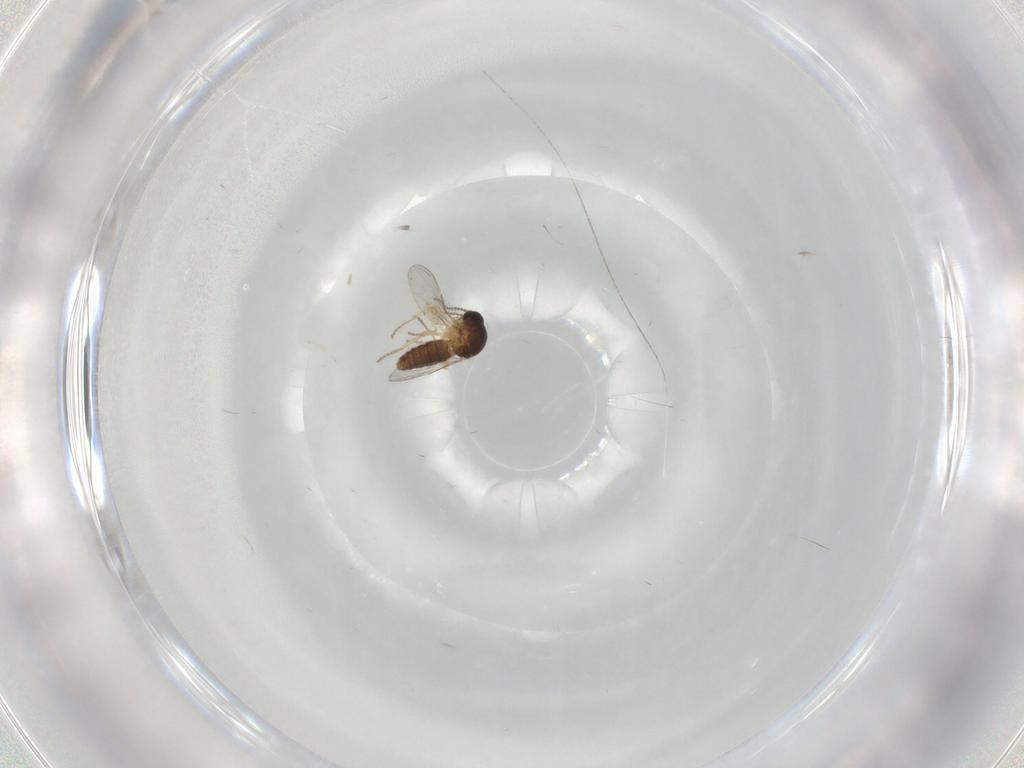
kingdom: Animalia
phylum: Arthropoda
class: Insecta
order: Diptera
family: Ceratopogonidae
